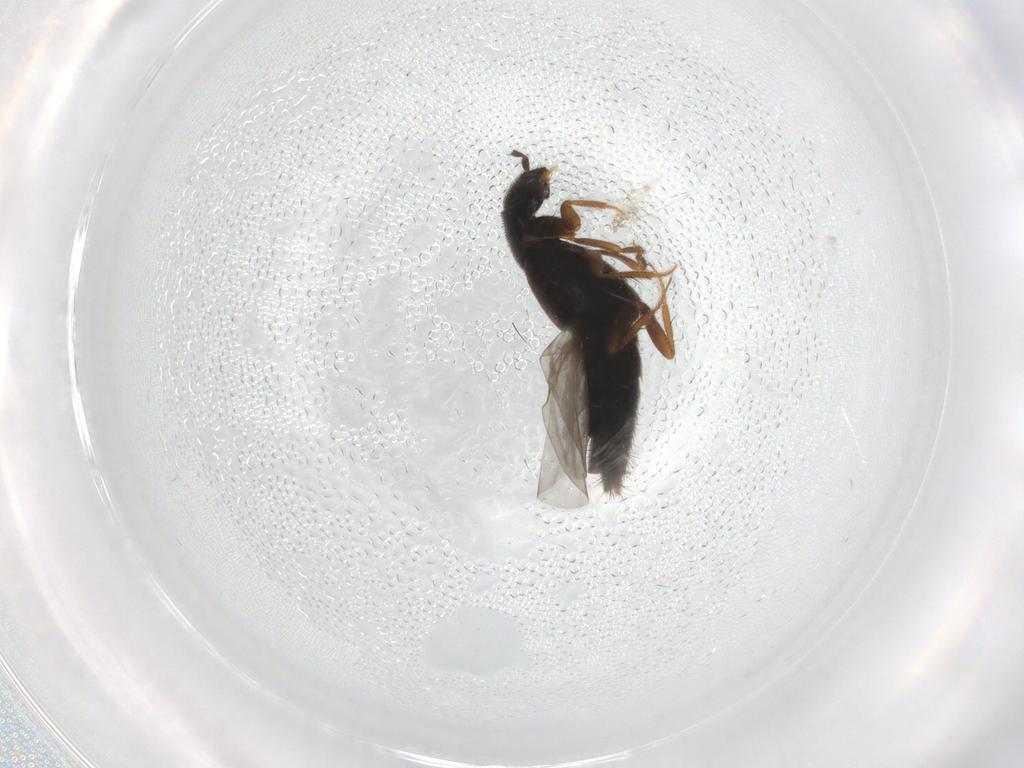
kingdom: Animalia
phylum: Arthropoda
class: Insecta
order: Coleoptera
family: Staphylinidae
